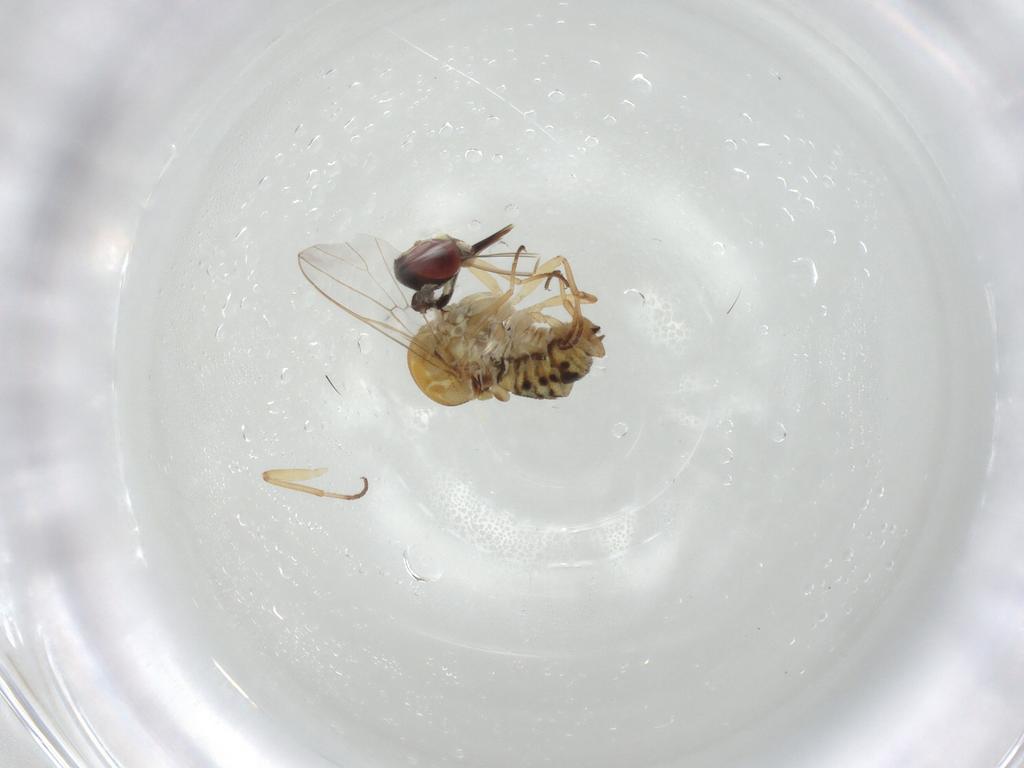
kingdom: Animalia
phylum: Arthropoda
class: Insecta
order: Diptera
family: Bombyliidae
